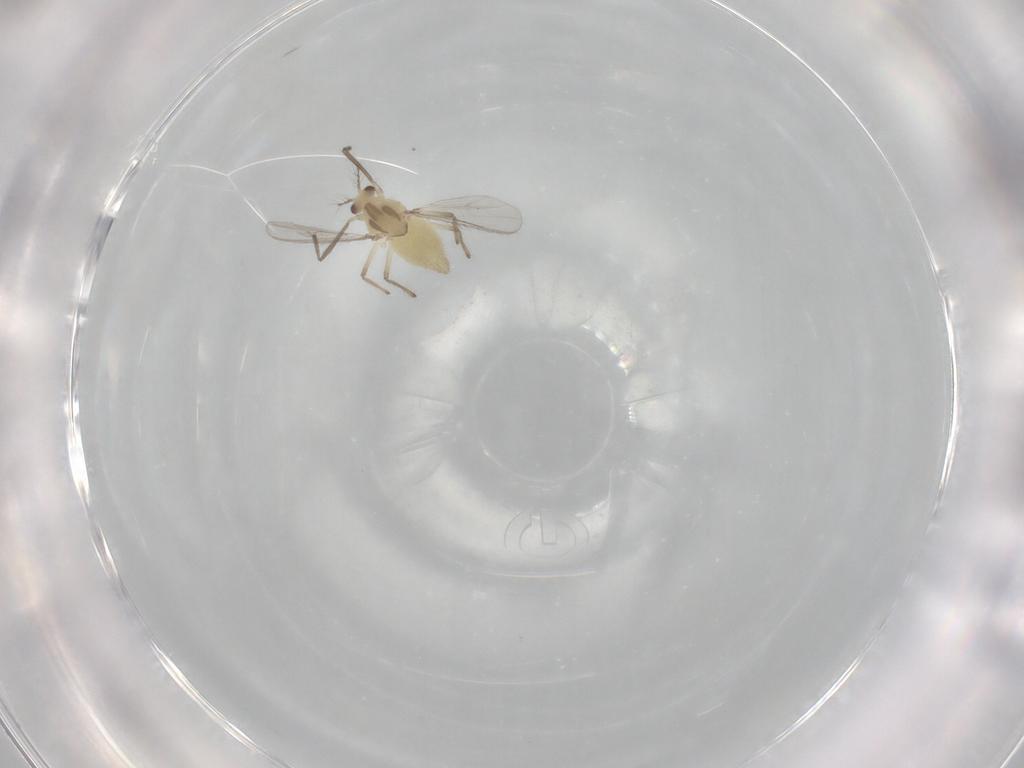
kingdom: Animalia
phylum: Arthropoda
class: Insecta
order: Diptera
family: Chironomidae
